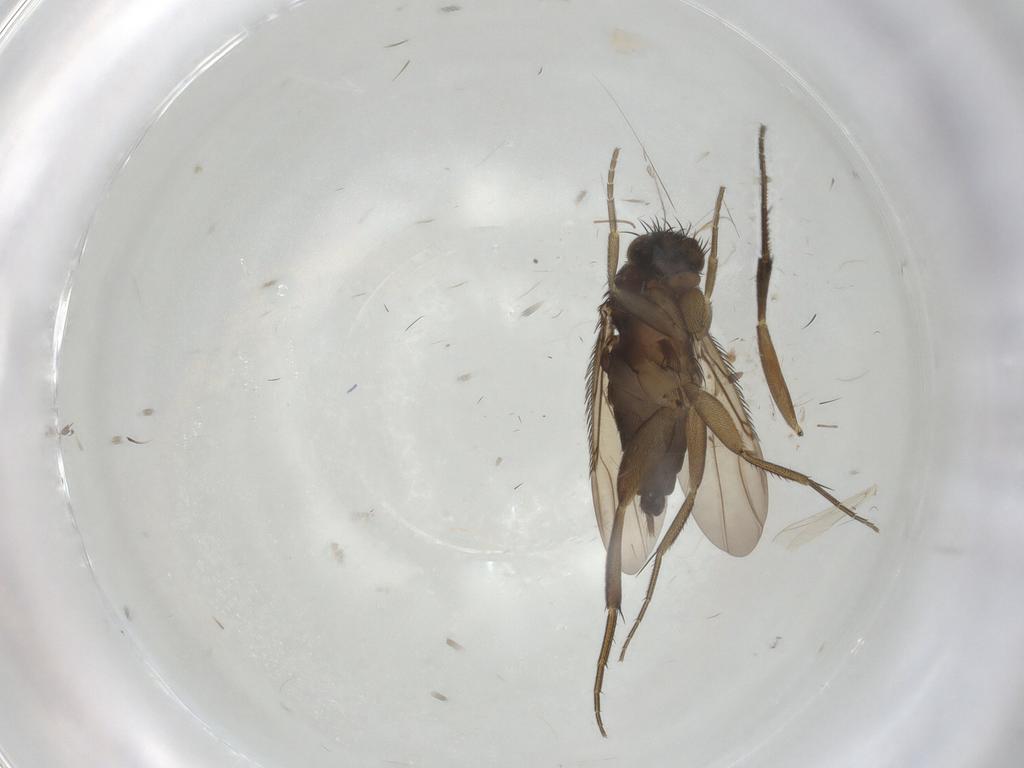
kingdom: Animalia
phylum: Arthropoda
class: Insecta
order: Diptera
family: Phoridae
